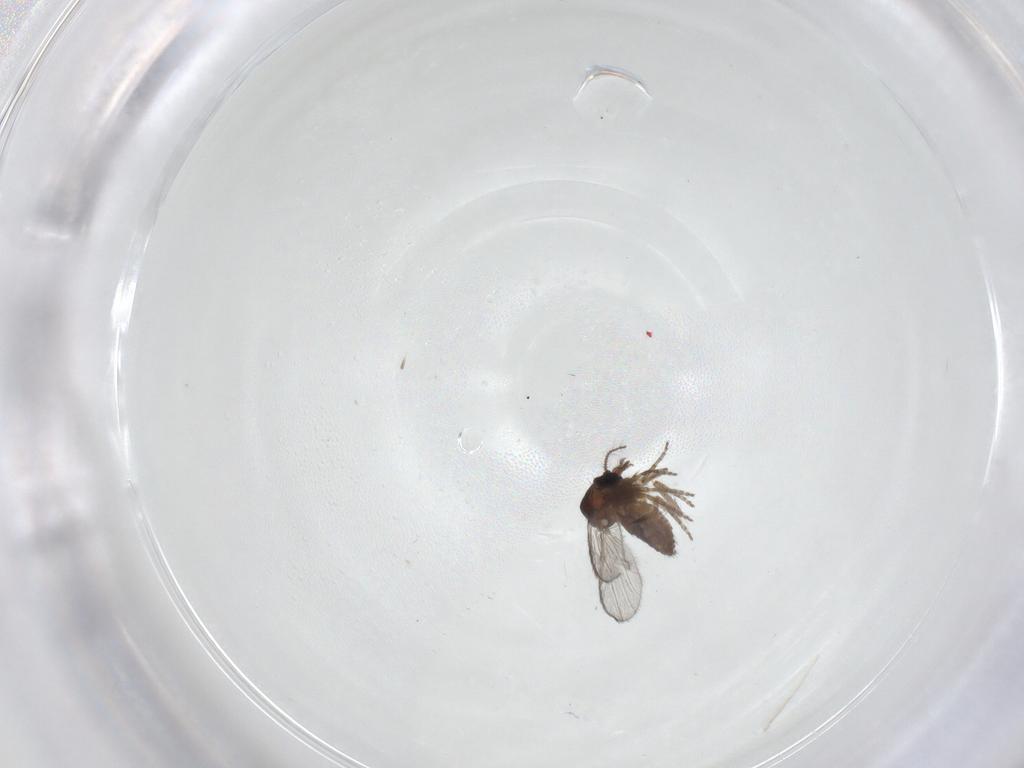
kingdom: Animalia
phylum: Arthropoda
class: Insecta
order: Diptera
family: Sciaridae
